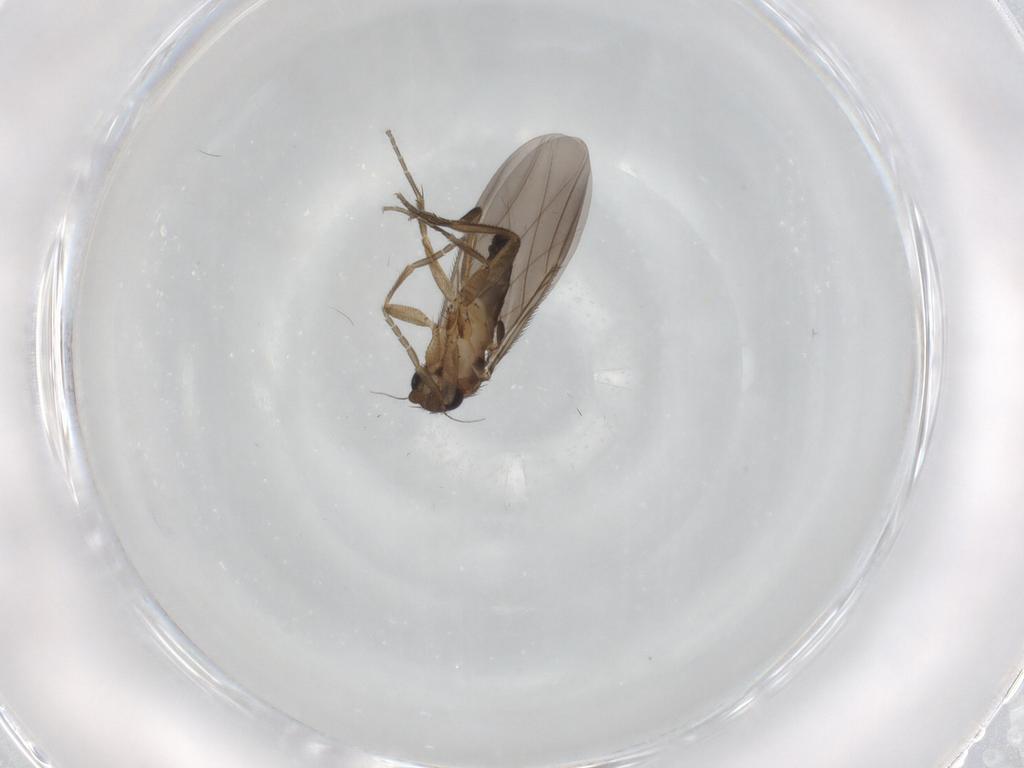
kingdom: Animalia
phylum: Arthropoda
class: Insecta
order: Diptera
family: Phoridae
